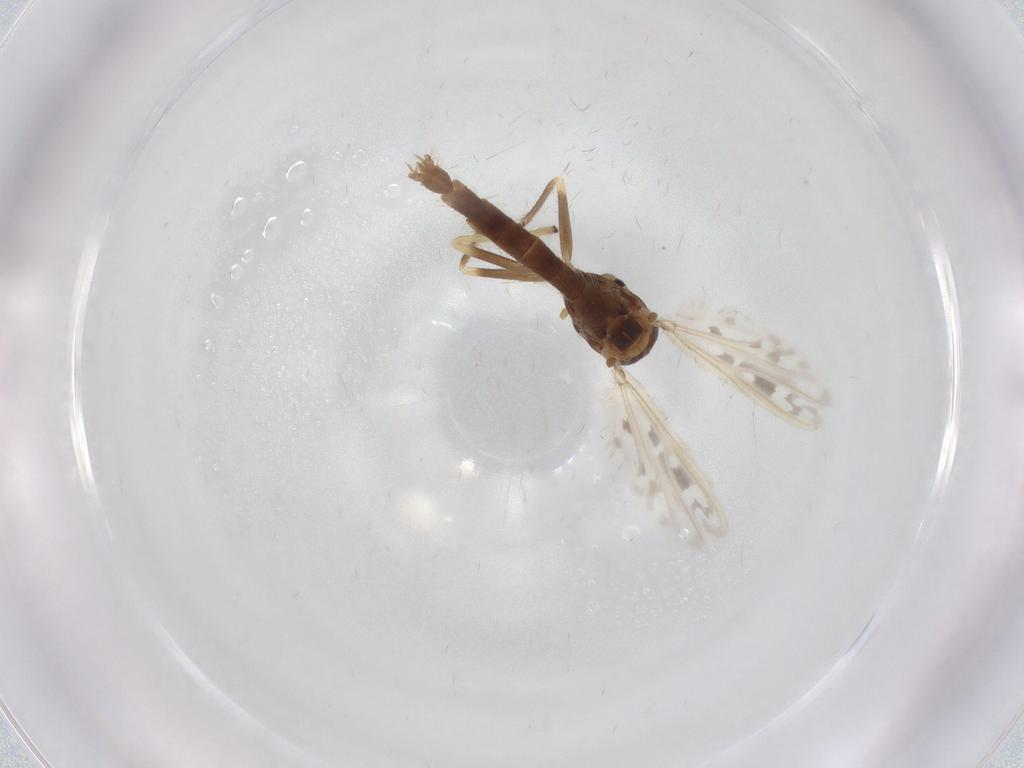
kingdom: Animalia
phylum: Arthropoda
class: Insecta
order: Diptera
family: Chironomidae
